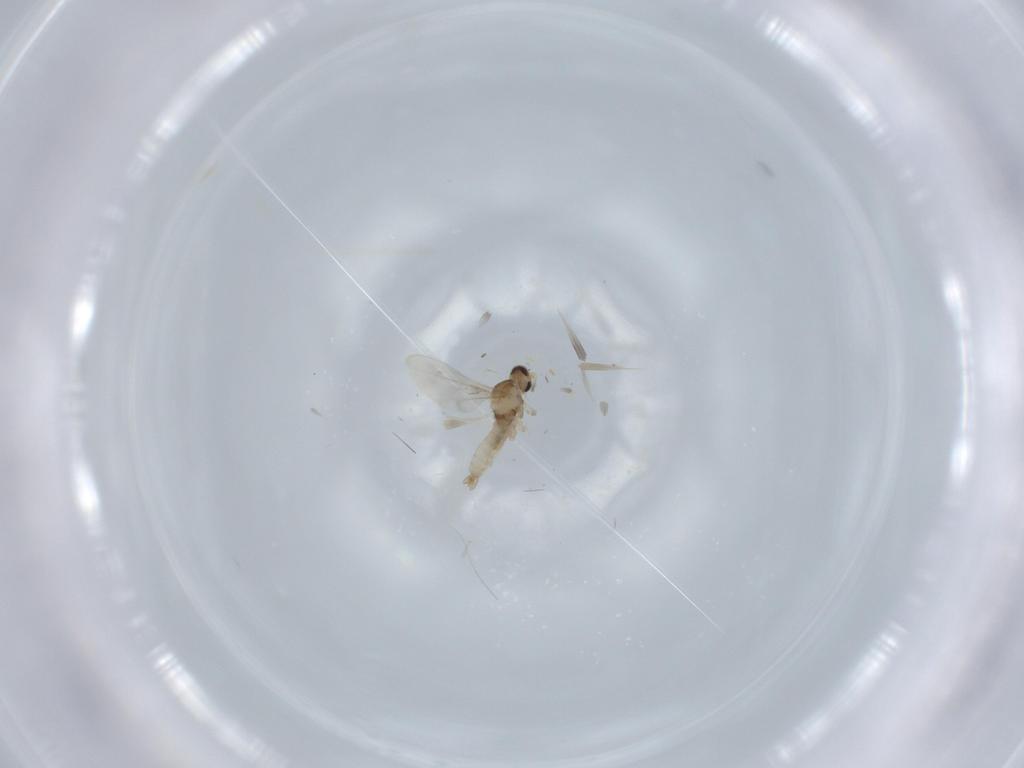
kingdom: Animalia
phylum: Arthropoda
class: Insecta
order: Diptera
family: Cecidomyiidae
